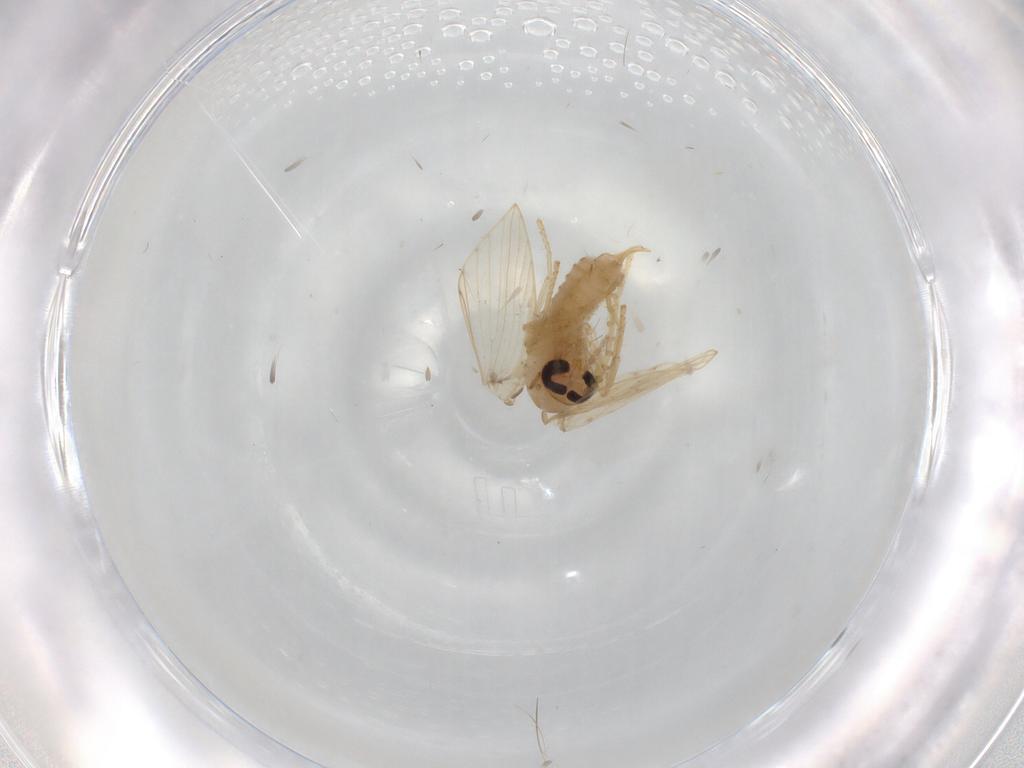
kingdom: Animalia
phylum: Arthropoda
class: Insecta
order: Diptera
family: Psychodidae
